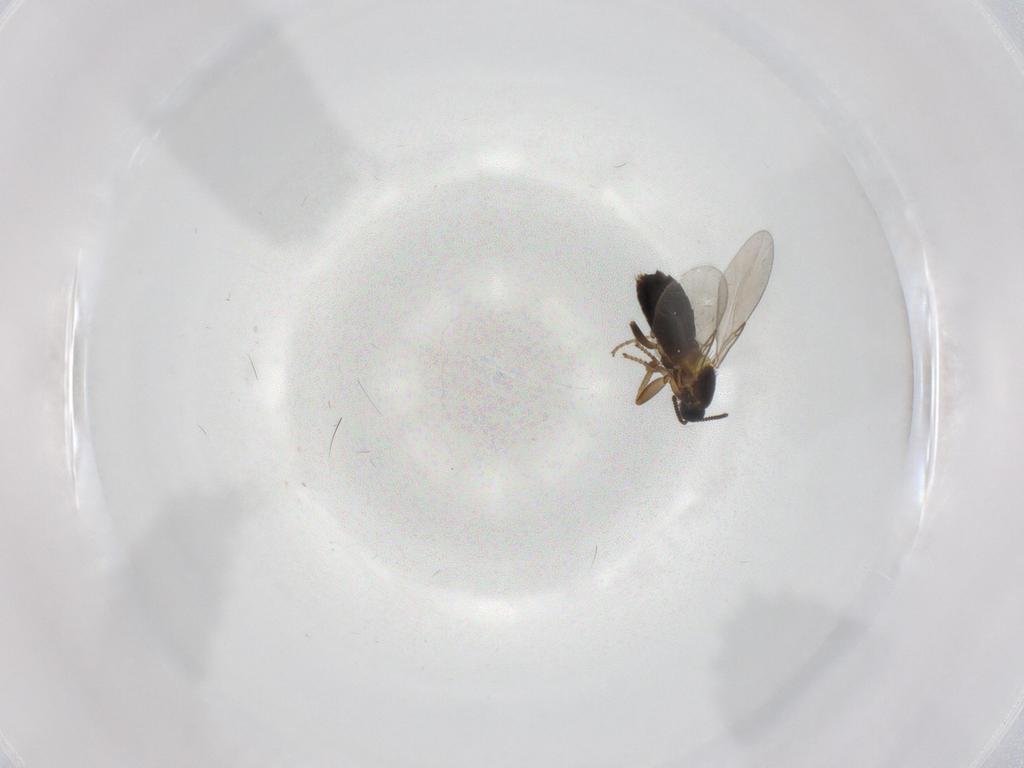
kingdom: Animalia
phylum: Arthropoda
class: Insecta
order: Diptera
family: Scatopsidae
